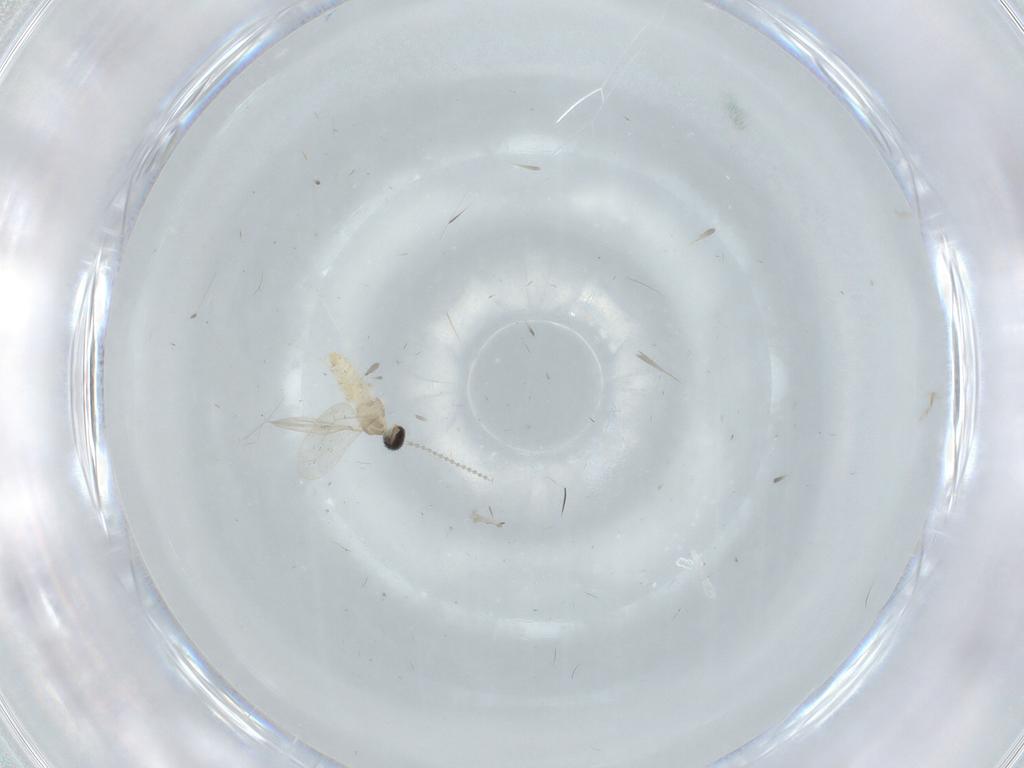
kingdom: Animalia
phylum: Arthropoda
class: Insecta
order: Diptera
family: Cecidomyiidae
